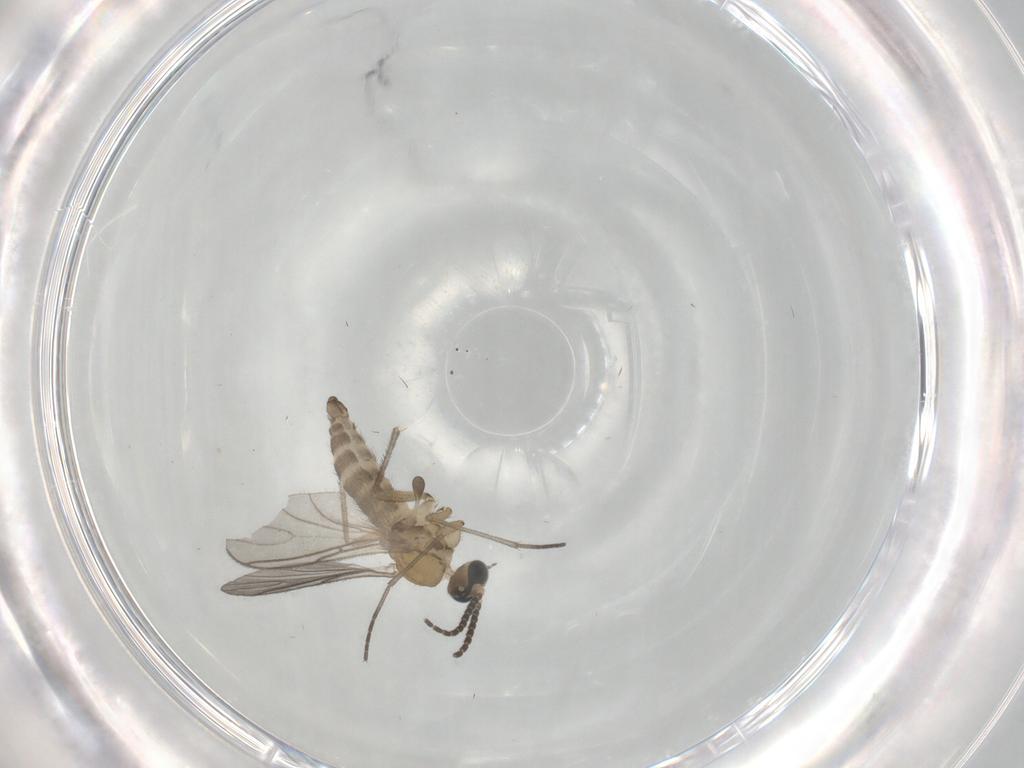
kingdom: Animalia
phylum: Arthropoda
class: Insecta
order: Diptera
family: Sciaridae
